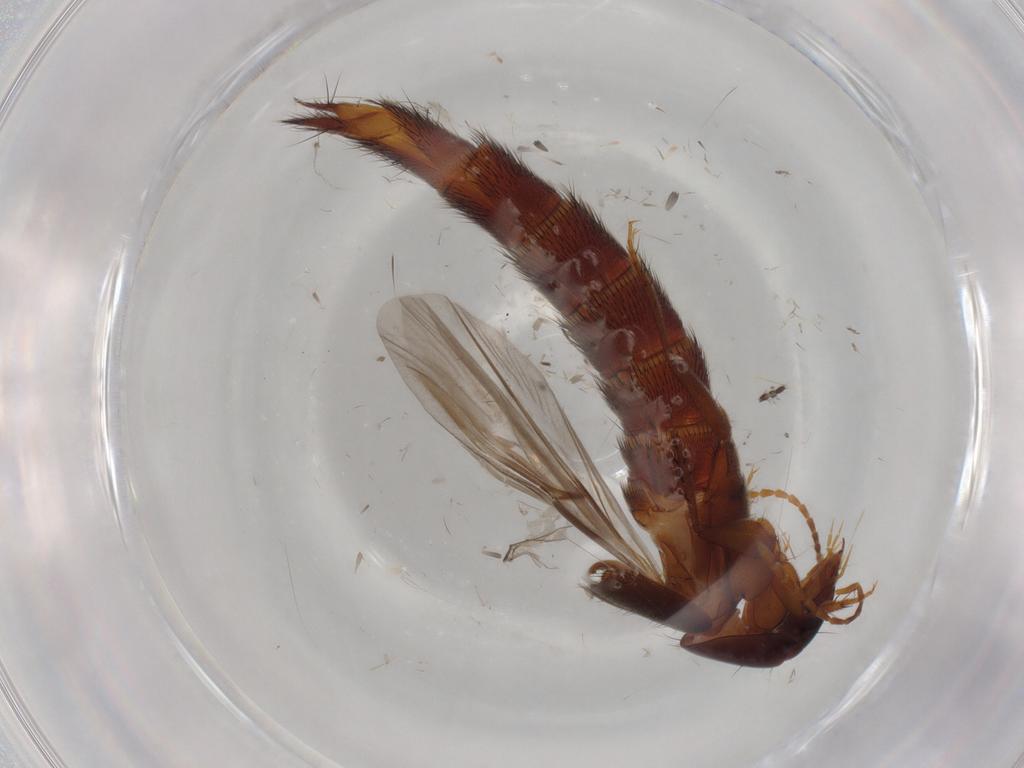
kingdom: Animalia
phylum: Arthropoda
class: Insecta
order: Coleoptera
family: Staphylinidae
